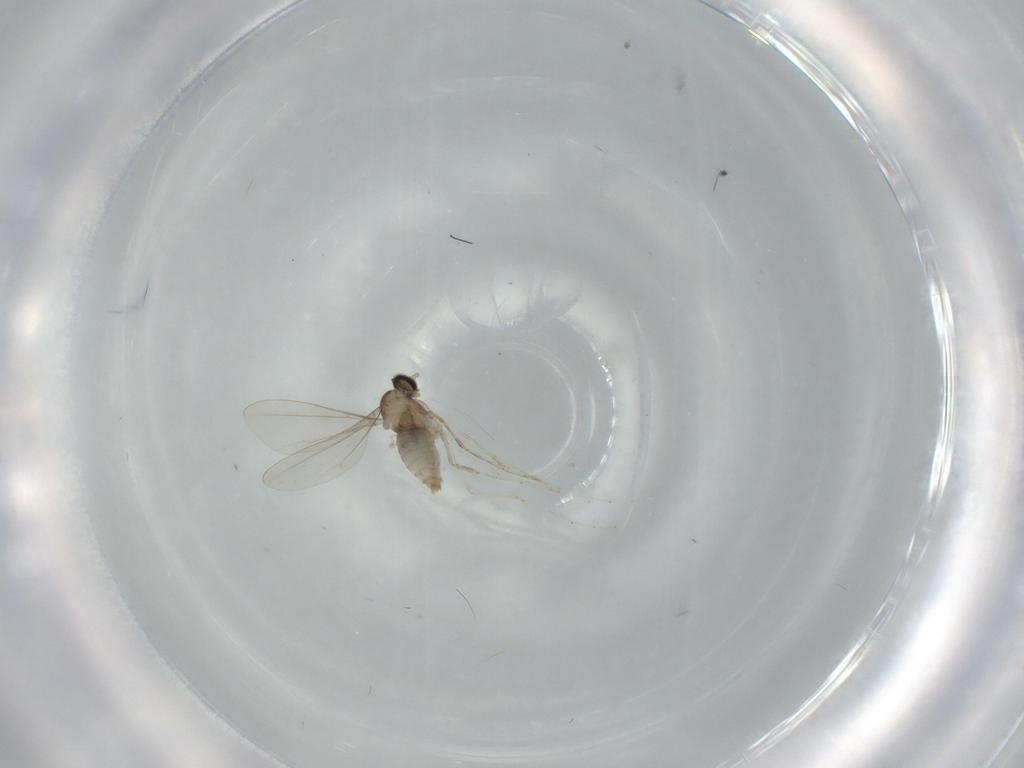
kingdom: Animalia
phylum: Arthropoda
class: Insecta
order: Diptera
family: Cecidomyiidae
